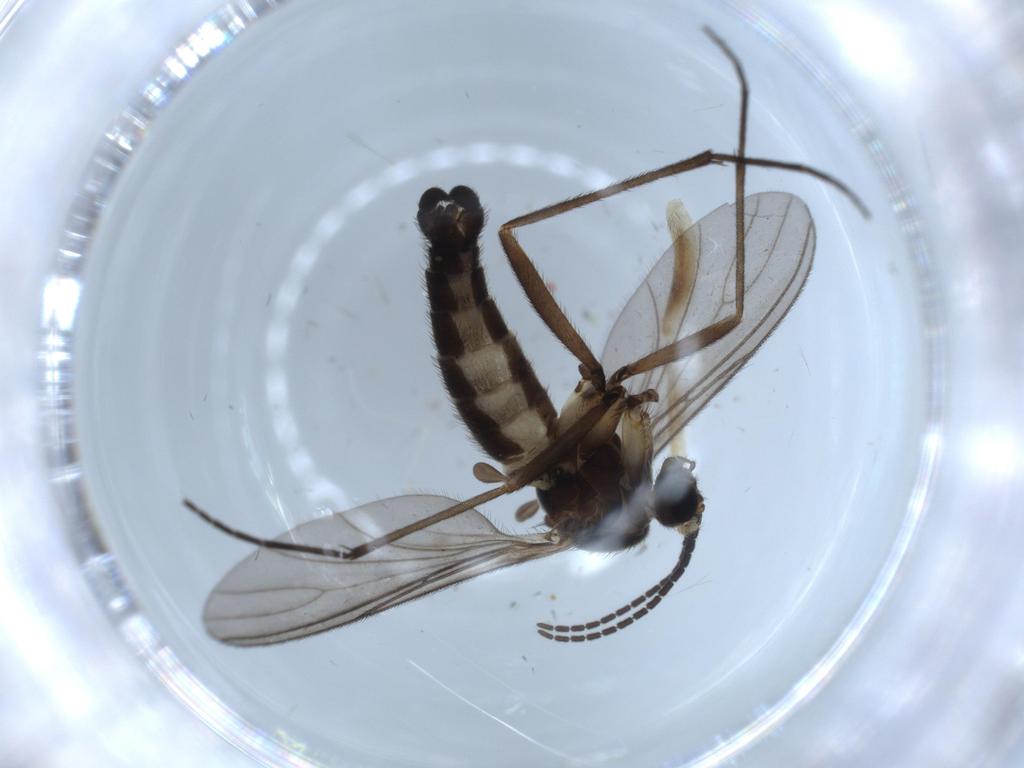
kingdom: Animalia
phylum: Arthropoda
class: Insecta
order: Diptera
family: Sciaridae
